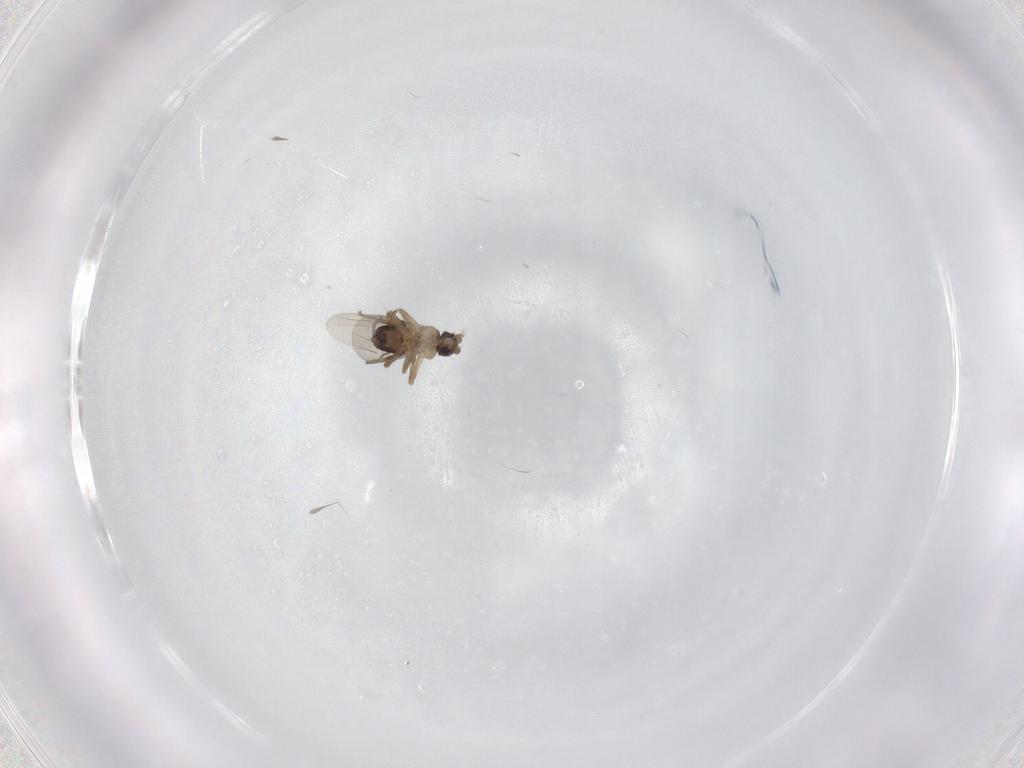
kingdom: Animalia
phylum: Arthropoda
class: Insecta
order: Diptera
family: Phoridae
